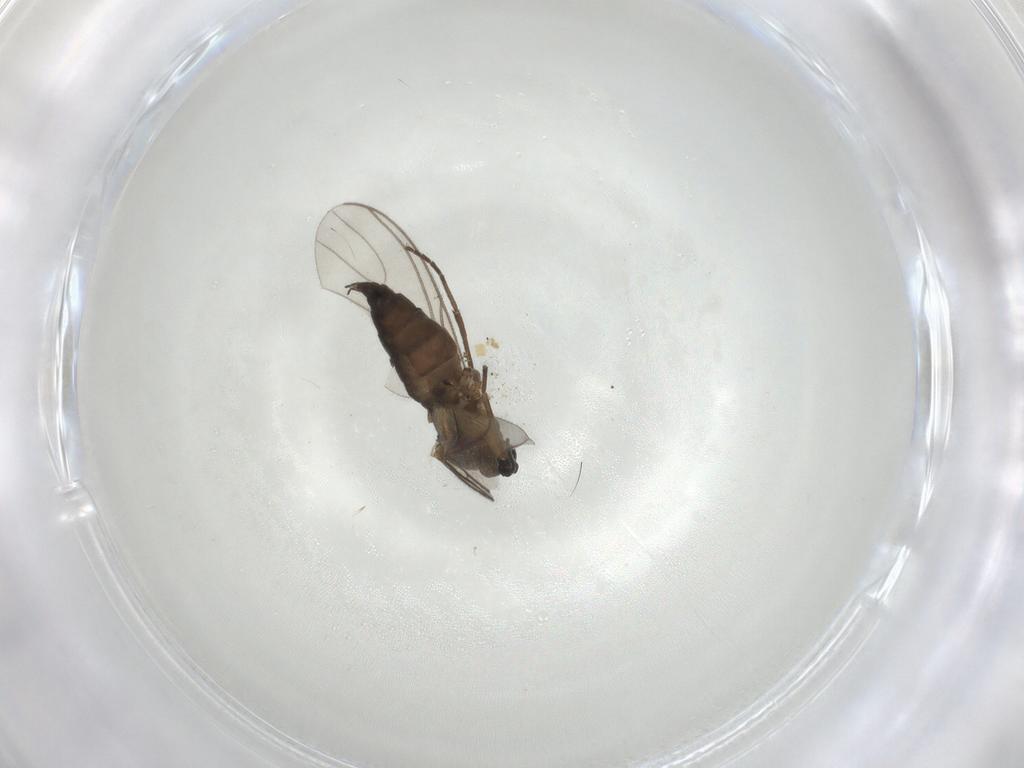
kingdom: Animalia
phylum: Arthropoda
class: Insecta
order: Diptera
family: Sciaridae
